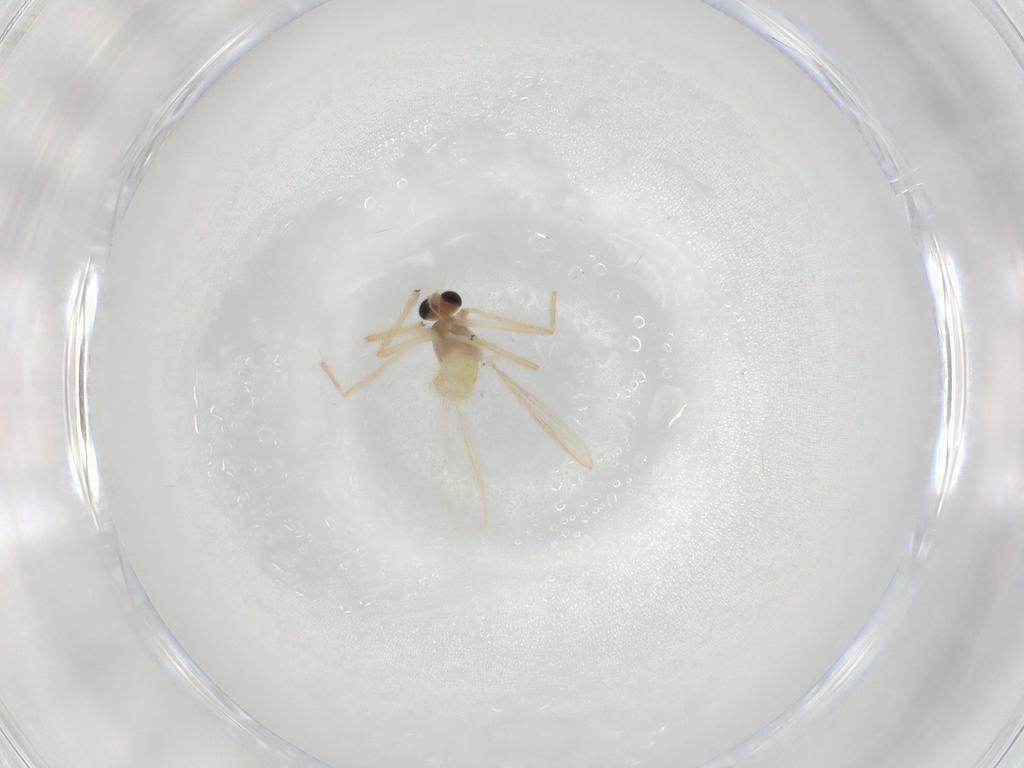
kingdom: Animalia
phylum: Arthropoda
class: Insecta
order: Diptera
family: Chironomidae
